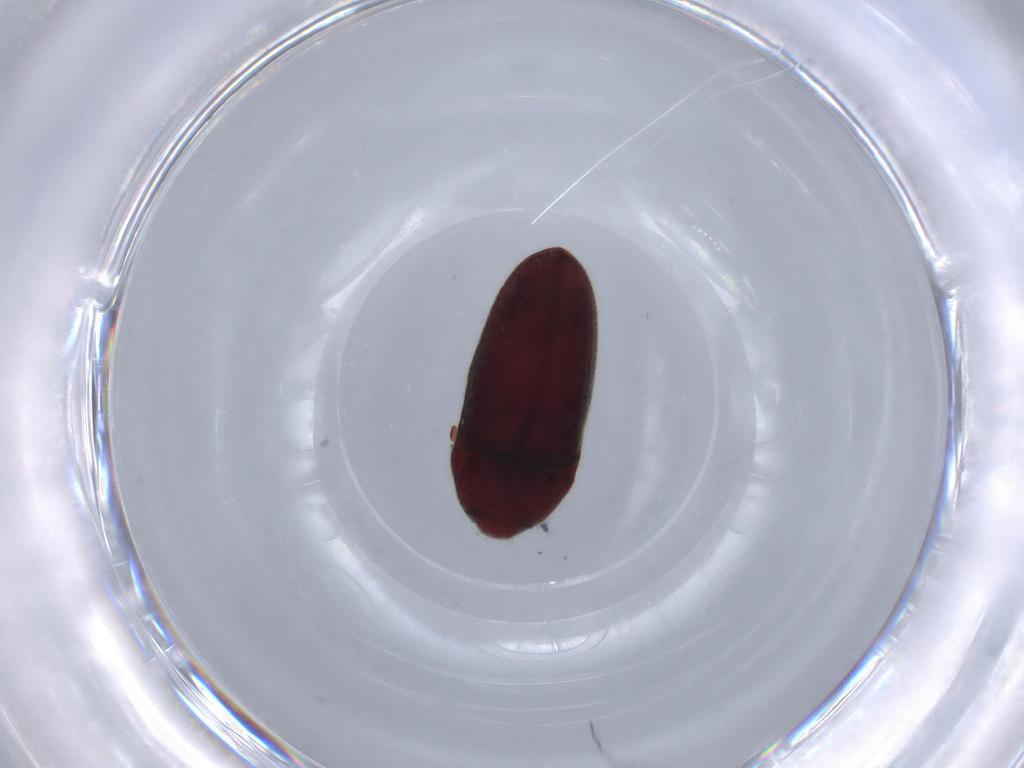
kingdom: Animalia
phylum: Arthropoda
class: Insecta
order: Coleoptera
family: Throscidae
